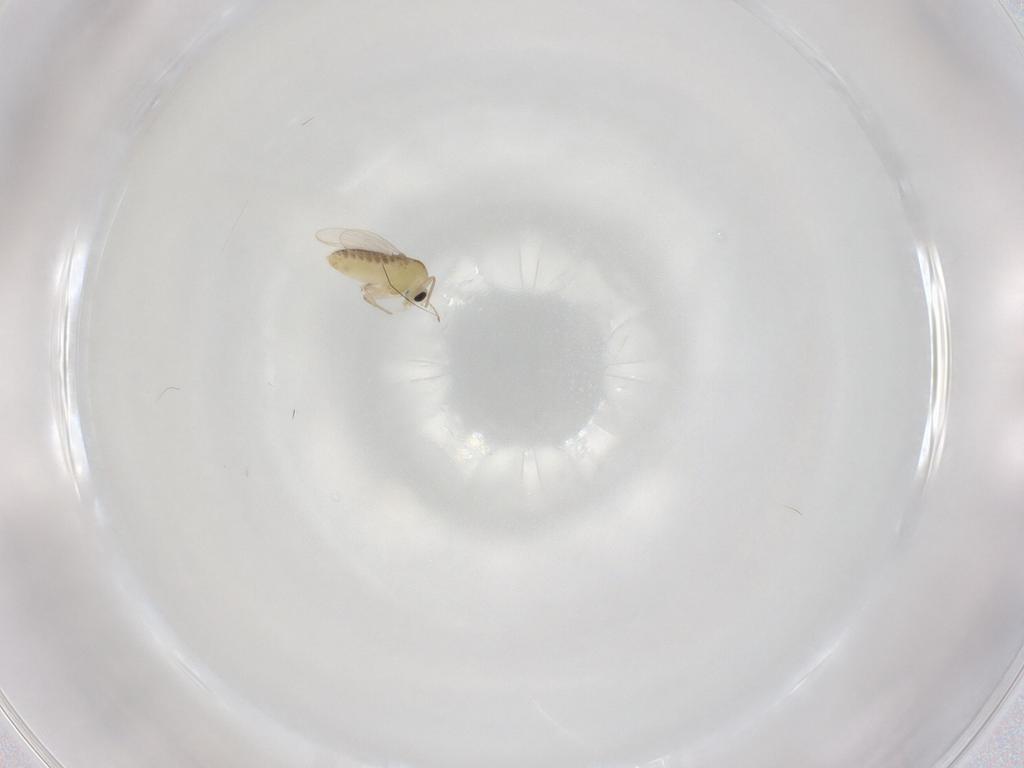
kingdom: Animalia
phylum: Arthropoda
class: Insecta
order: Diptera
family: Chironomidae
